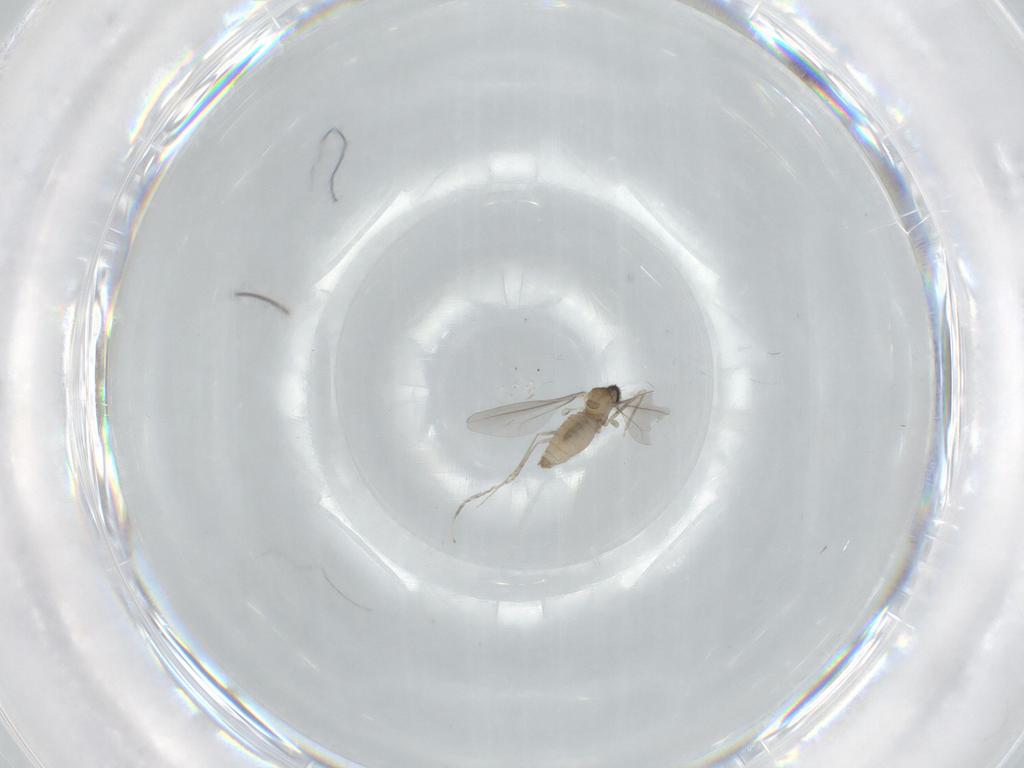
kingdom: Animalia
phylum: Arthropoda
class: Insecta
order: Diptera
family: Cecidomyiidae
